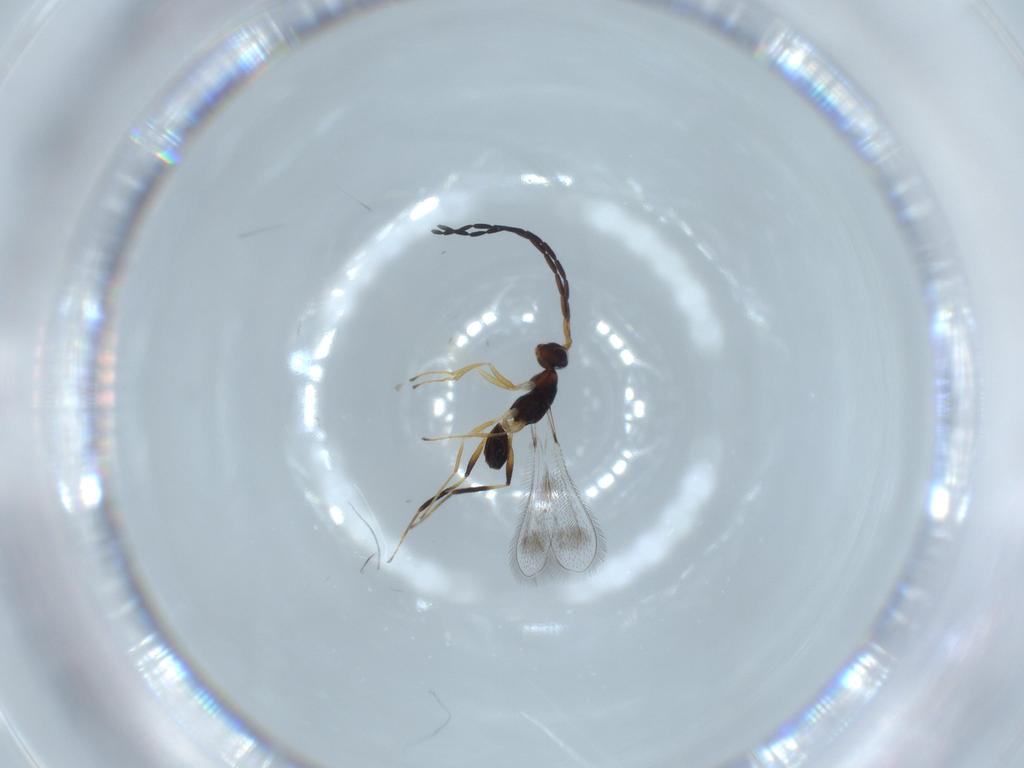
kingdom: Animalia
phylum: Arthropoda
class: Insecta
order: Hymenoptera
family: Mymaridae
